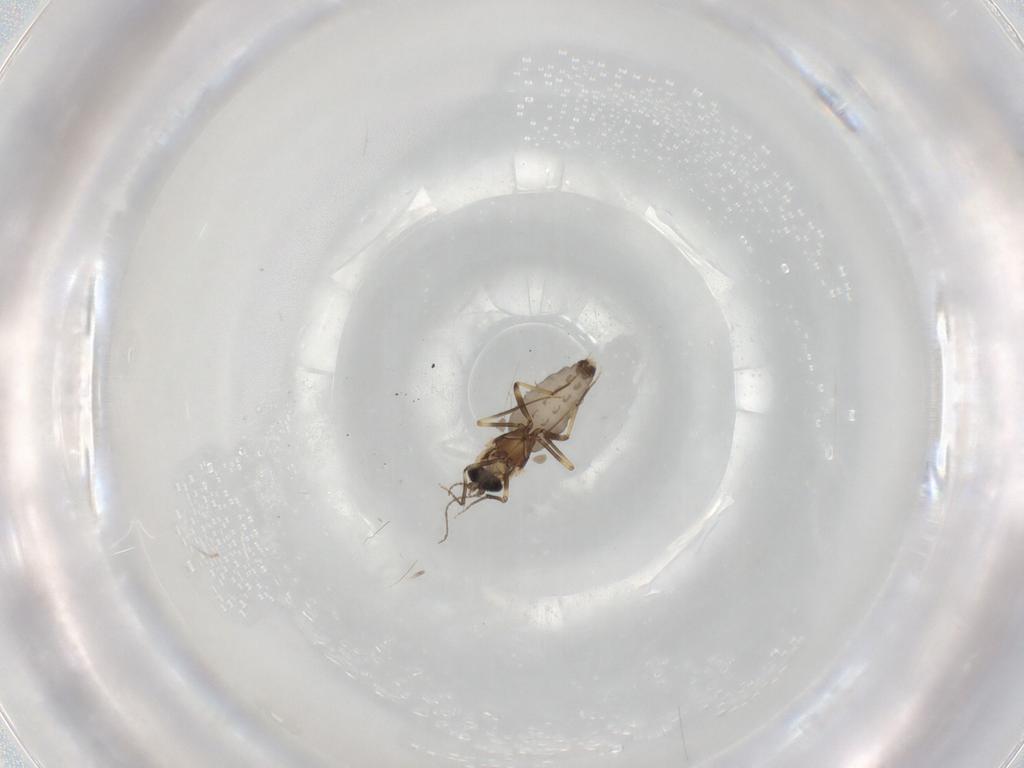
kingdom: Animalia
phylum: Arthropoda
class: Insecta
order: Diptera
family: Ceratopogonidae
